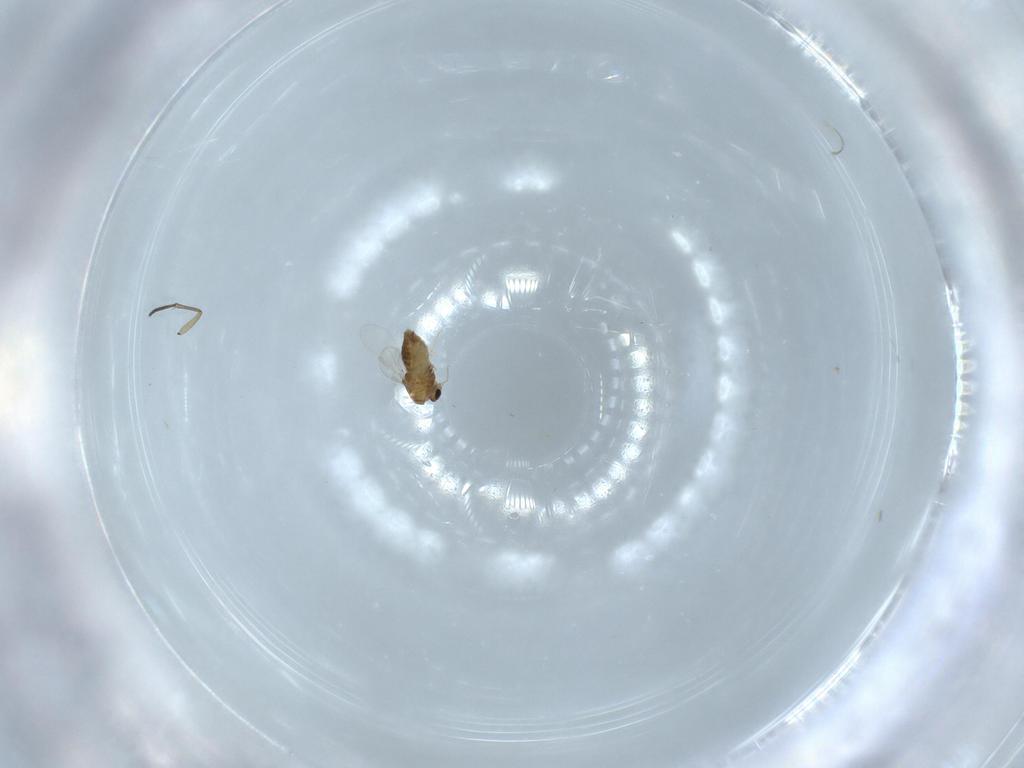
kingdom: Animalia
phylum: Arthropoda
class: Insecta
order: Diptera
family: Chironomidae
